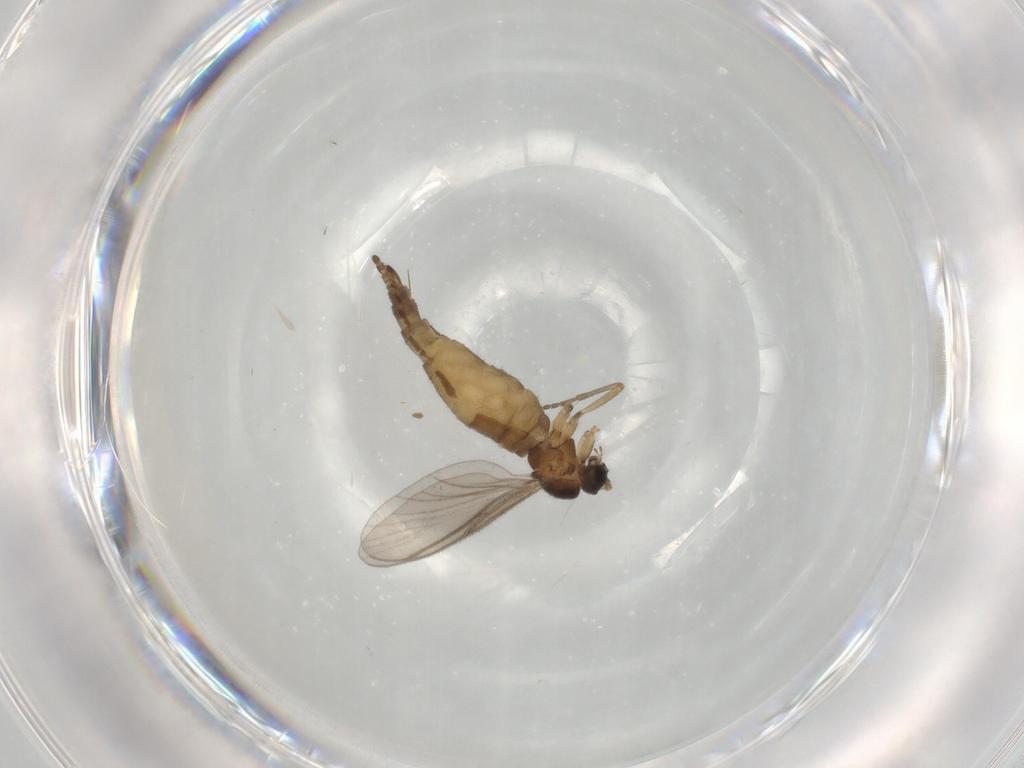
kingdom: Animalia
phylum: Arthropoda
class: Insecta
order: Diptera
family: Sciaridae
